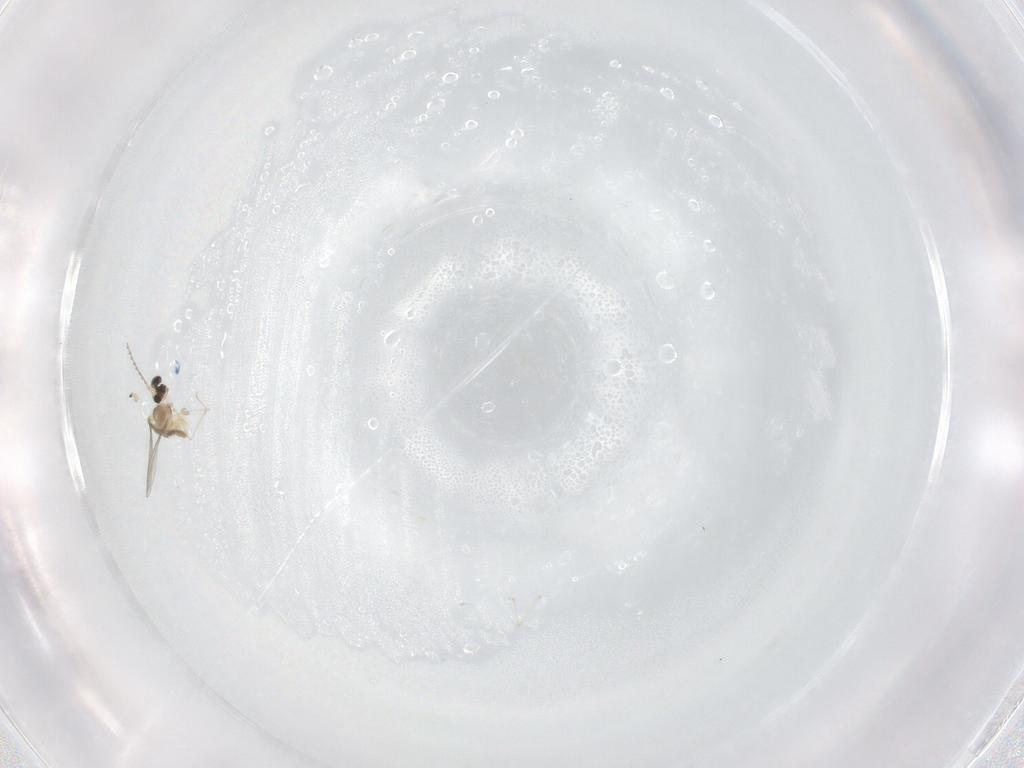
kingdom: Animalia
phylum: Arthropoda
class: Insecta
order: Diptera
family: Cecidomyiidae
